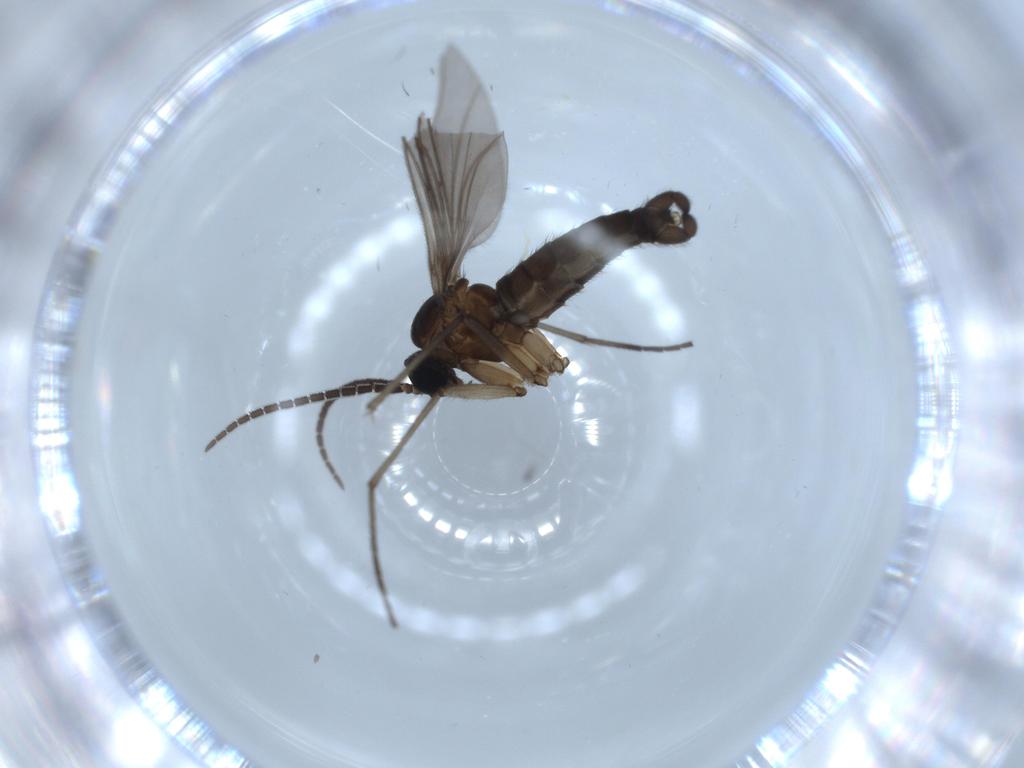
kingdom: Animalia
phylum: Arthropoda
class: Insecta
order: Diptera
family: Sciaridae
